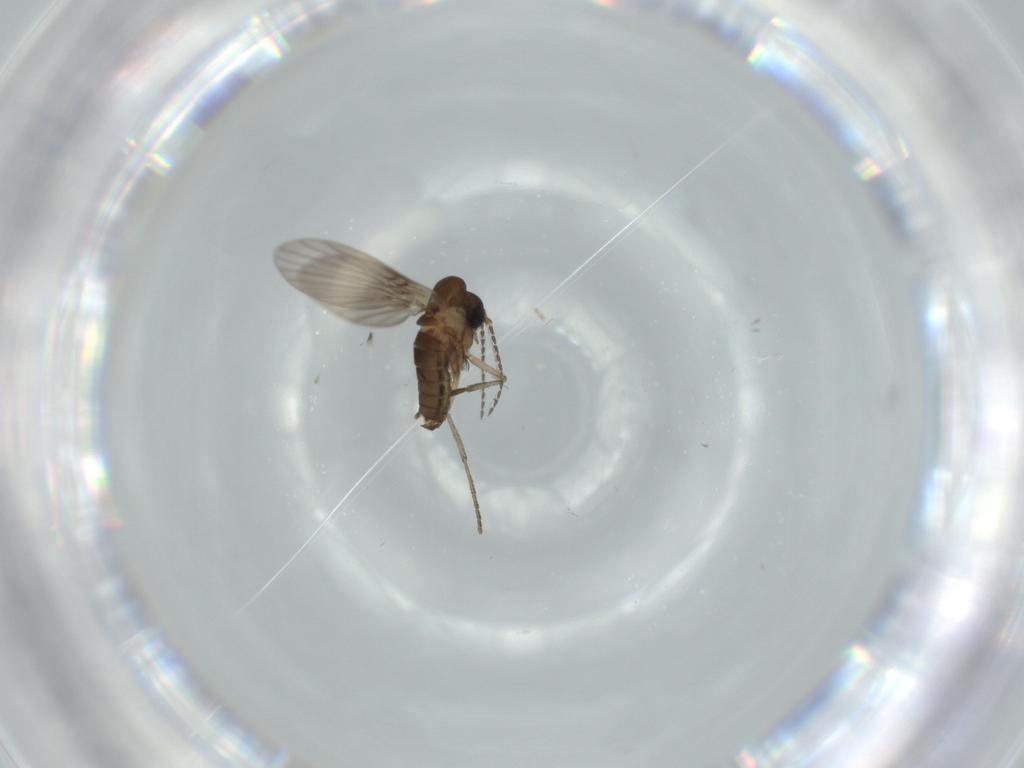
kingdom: Animalia
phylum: Arthropoda
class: Insecta
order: Diptera
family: Psychodidae
